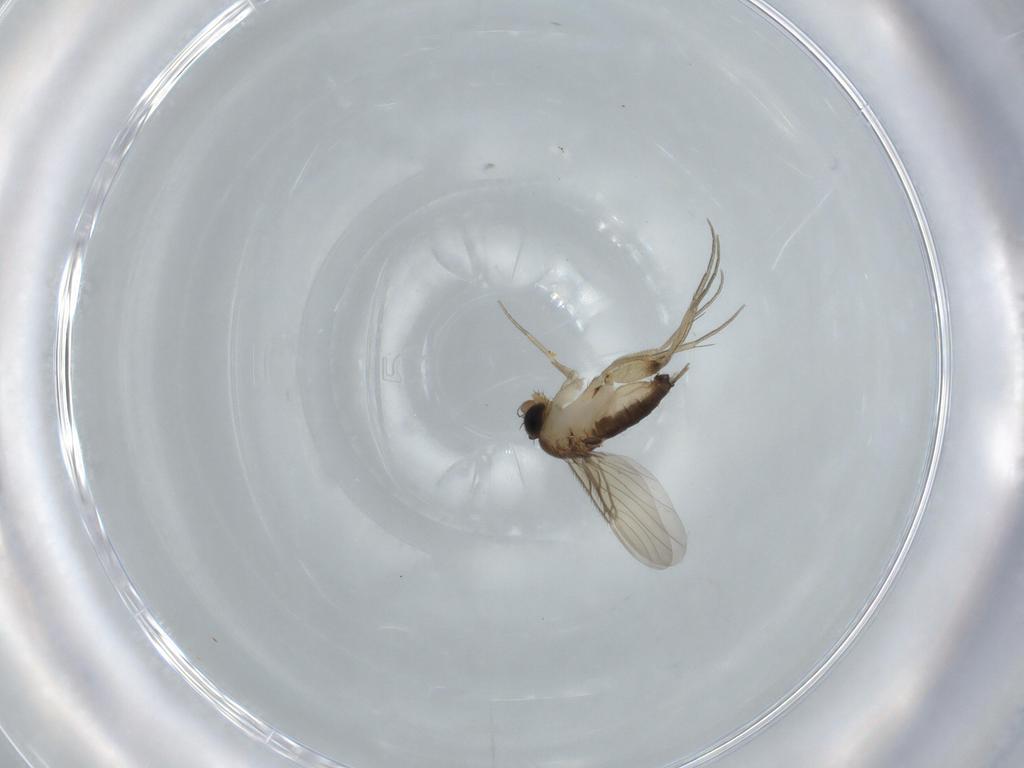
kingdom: Animalia
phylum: Arthropoda
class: Insecta
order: Diptera
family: Phoridae
